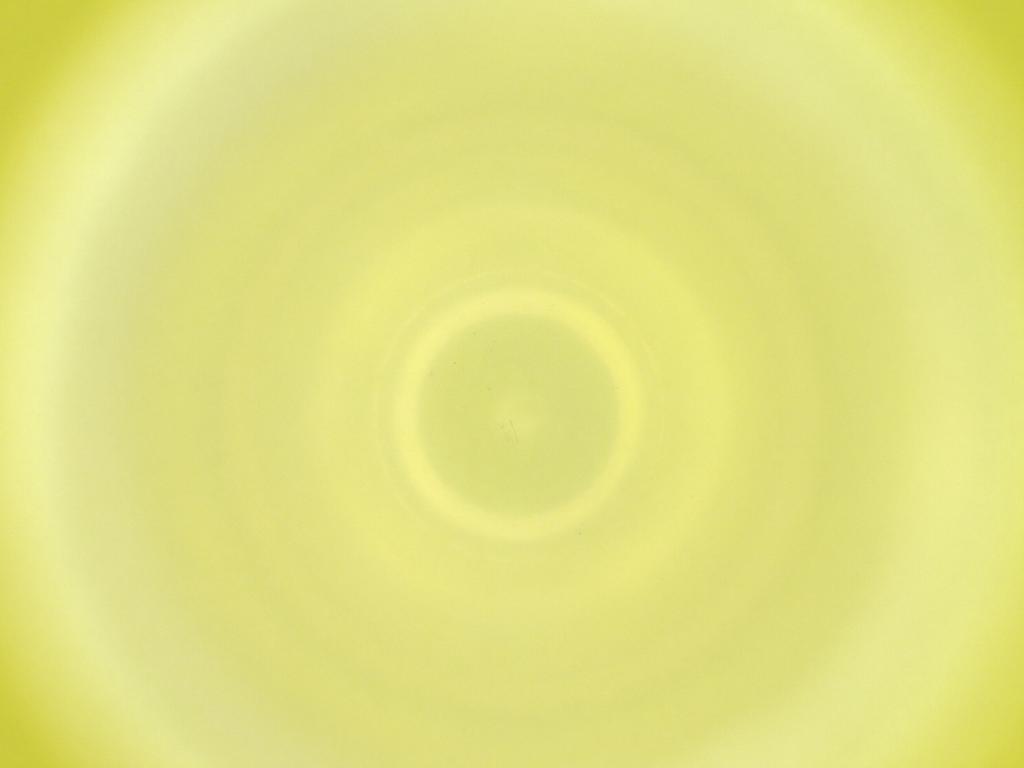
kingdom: Animalia
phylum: Arthropoda
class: Insecta
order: Diptera
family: Cecidomyiidae
